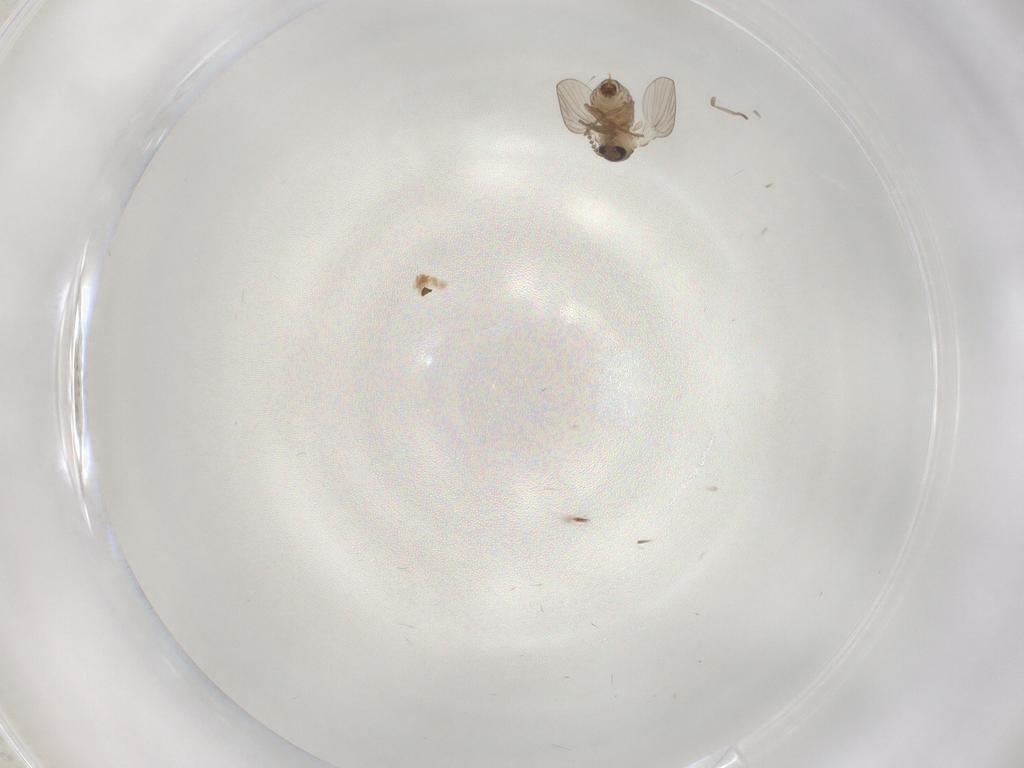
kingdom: Animalia
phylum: Arthropoda
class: Insecta
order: Diptera
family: Psychodidae
